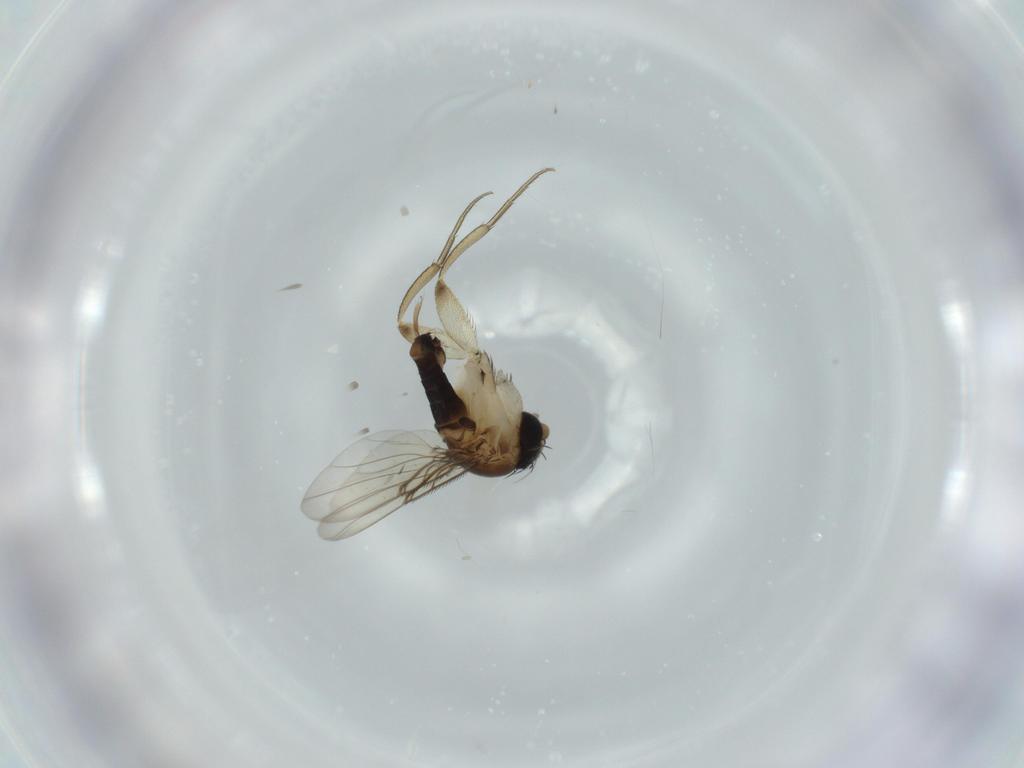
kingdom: Animalia
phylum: Arthropoda
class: Insecta
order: Diptera
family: Phoridae
